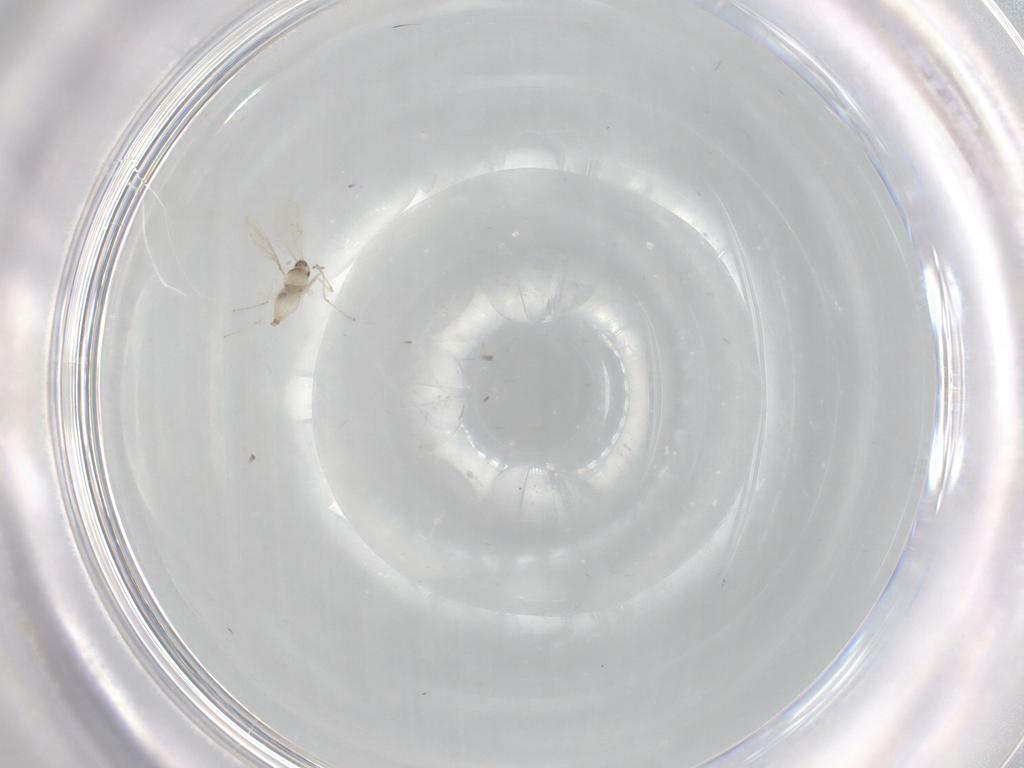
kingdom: Animalia
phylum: Arthropoda
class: Insecta
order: Diptera
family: Cecidomyiidae
